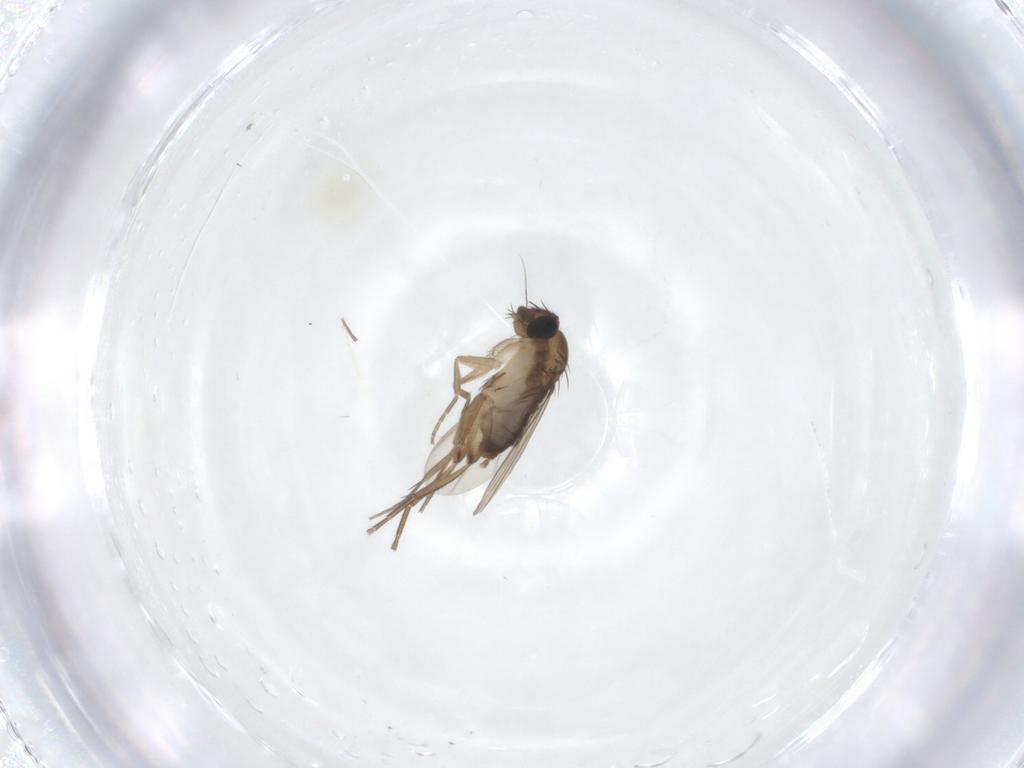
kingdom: Animalia
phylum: Arthropoda
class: Insecta
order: Diptera
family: Phoridae
